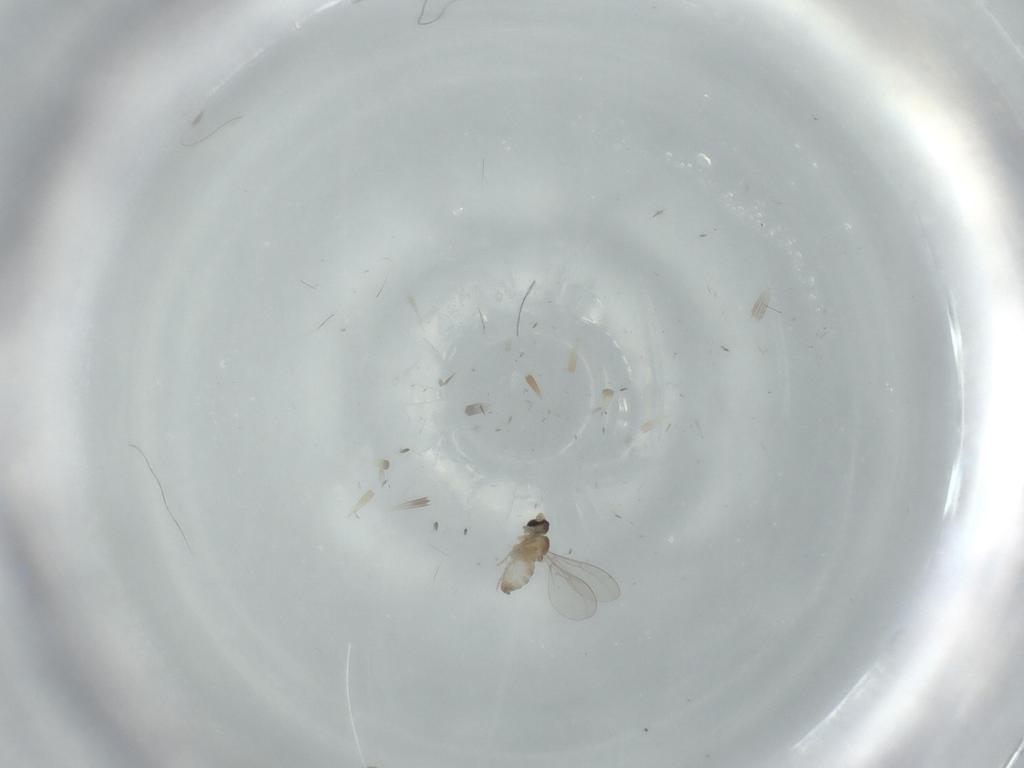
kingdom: Animalia
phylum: Arthropoda
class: Insecta
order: Diptera
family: Cecidomyiidae
